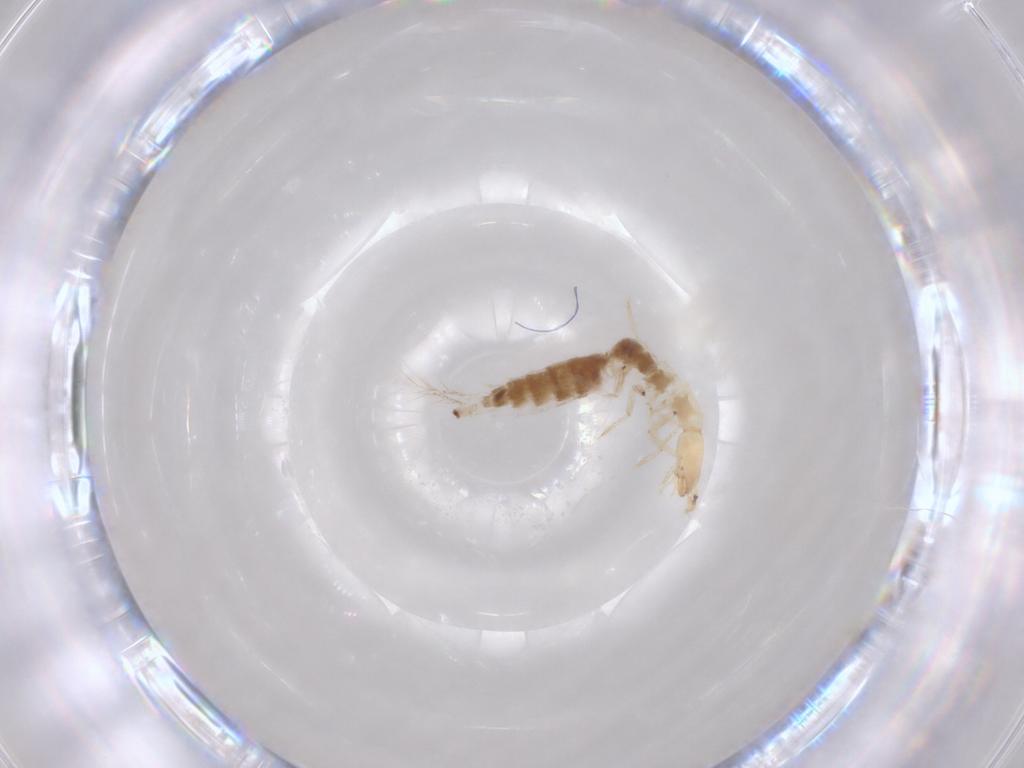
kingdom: Animalia
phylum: Arthropoda
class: Insecta
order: Coleoptera
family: Staphylinidae
